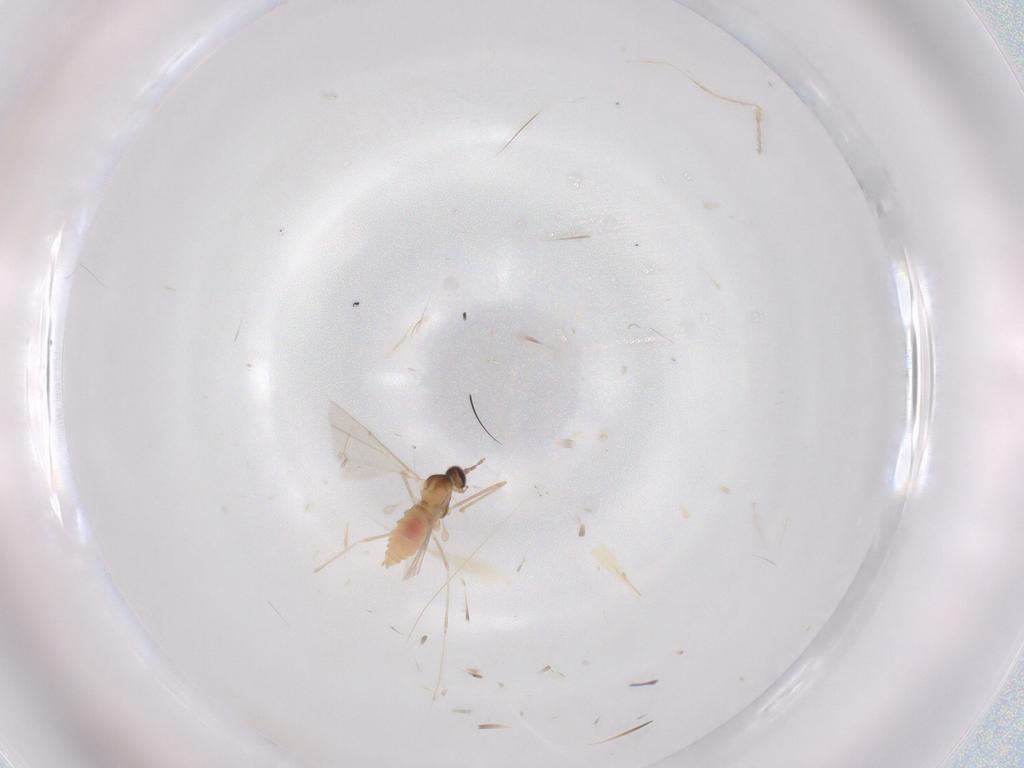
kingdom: Animalia
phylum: Arthropoda
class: Insecta
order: Diptera
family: Cecidomyiidae
